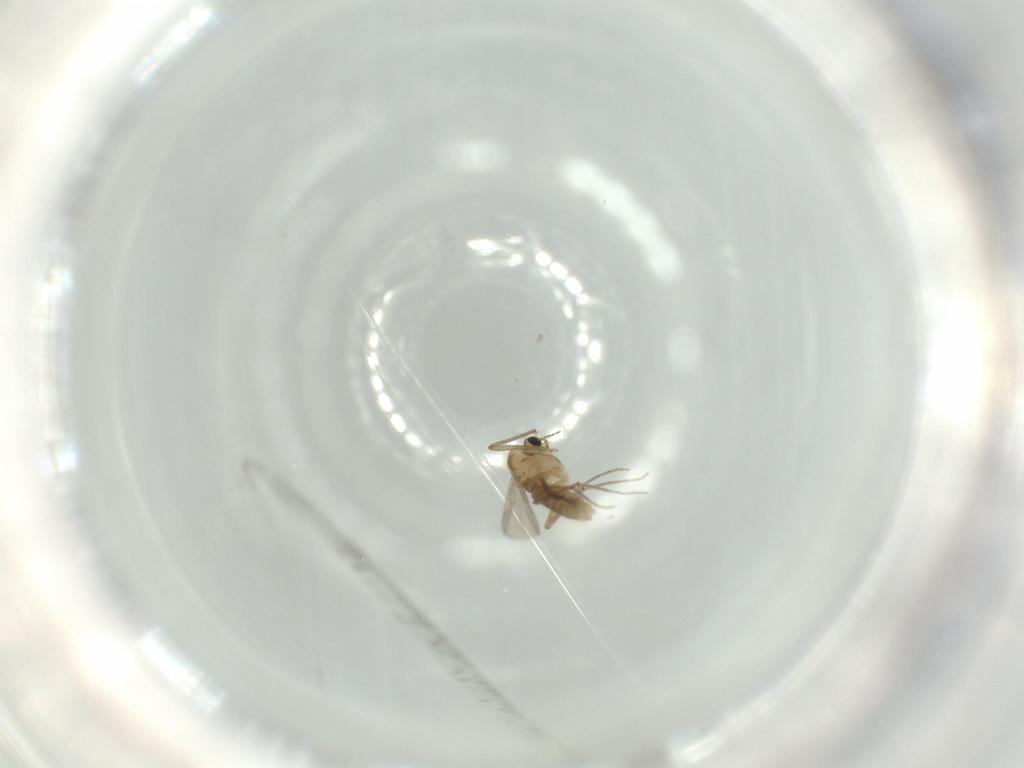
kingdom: Animalia
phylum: Arthropoda
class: Insecta
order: Diptera
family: Chironomidae
